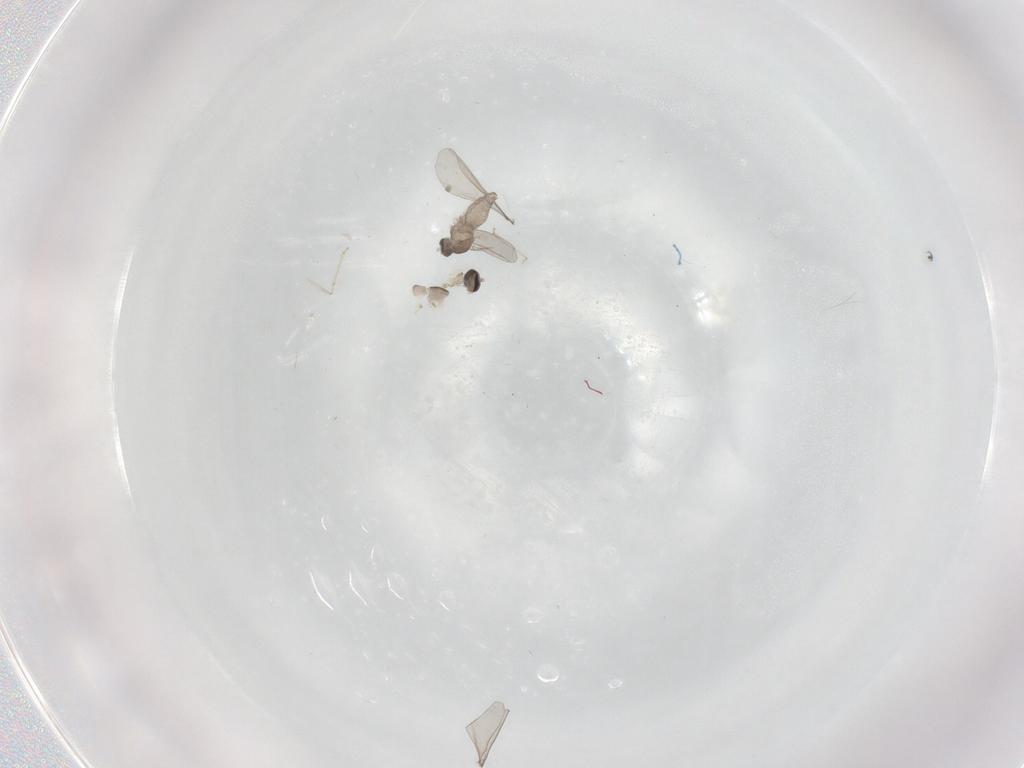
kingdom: Animalia
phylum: Arthropoda
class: Insecta
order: Diptera
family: Cecidomyiidae
